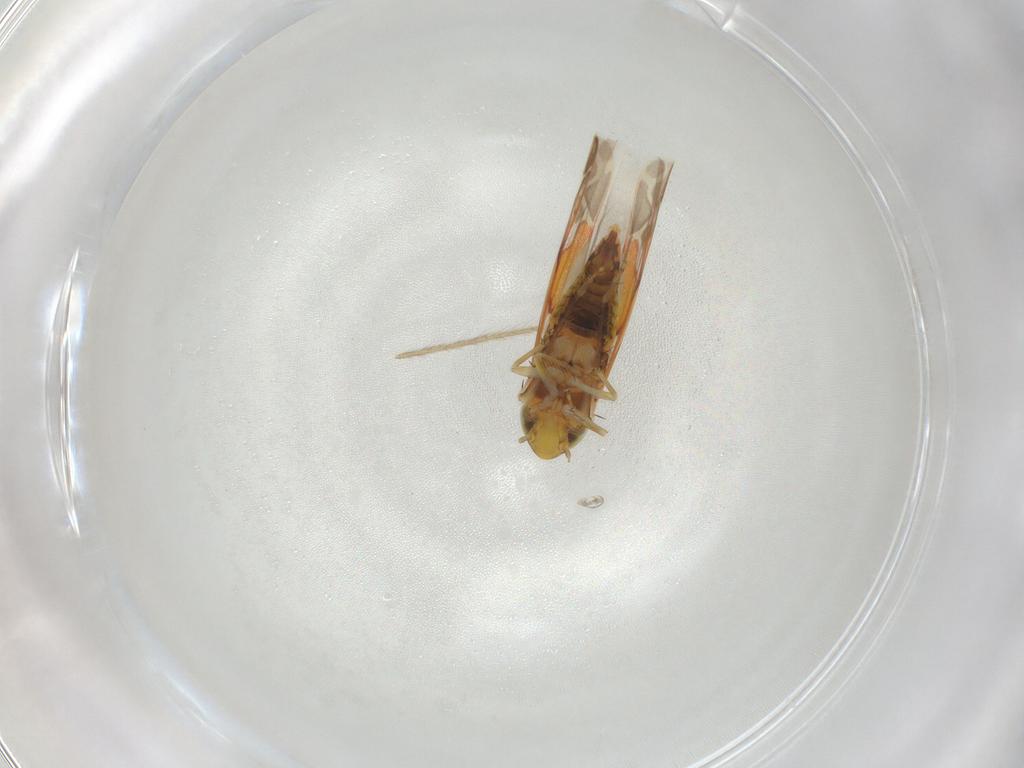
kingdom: Animalia
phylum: Arthropoda
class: Insecta
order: Hemiptera
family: Cicadellidae
